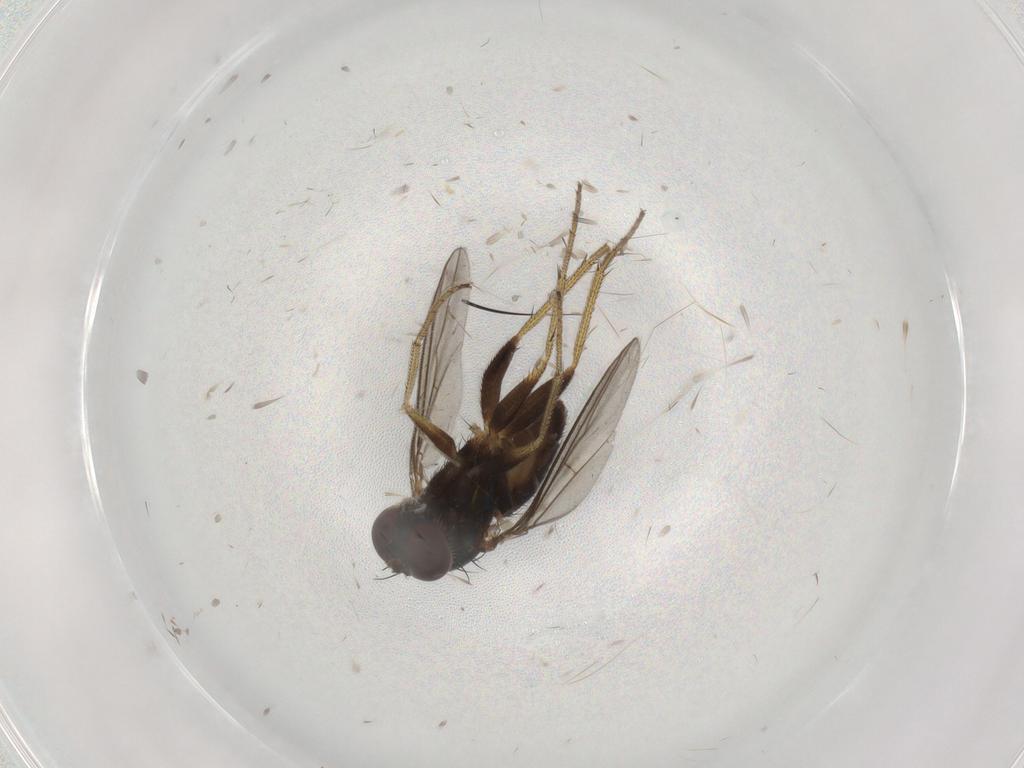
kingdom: Animalia
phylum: Arthropoda
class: Insecta
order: Diptera
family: Cecidomyiidae
